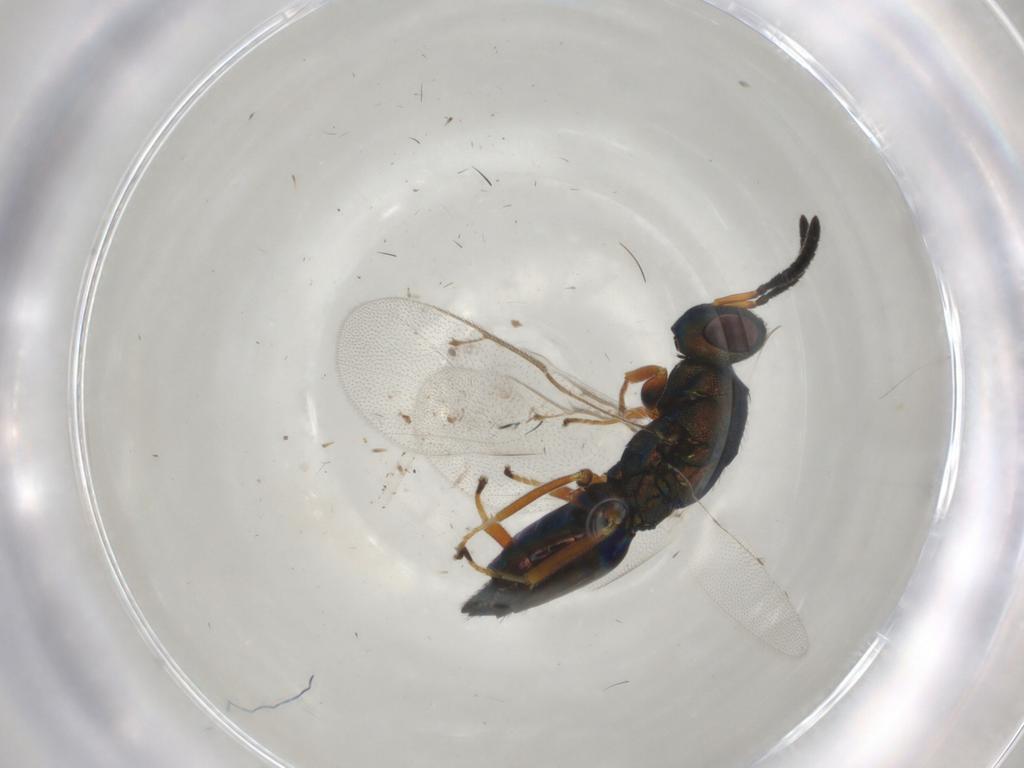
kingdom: Animalia
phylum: Arthropoda
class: Insecta
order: Hymenoptera
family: Pteromalidae
